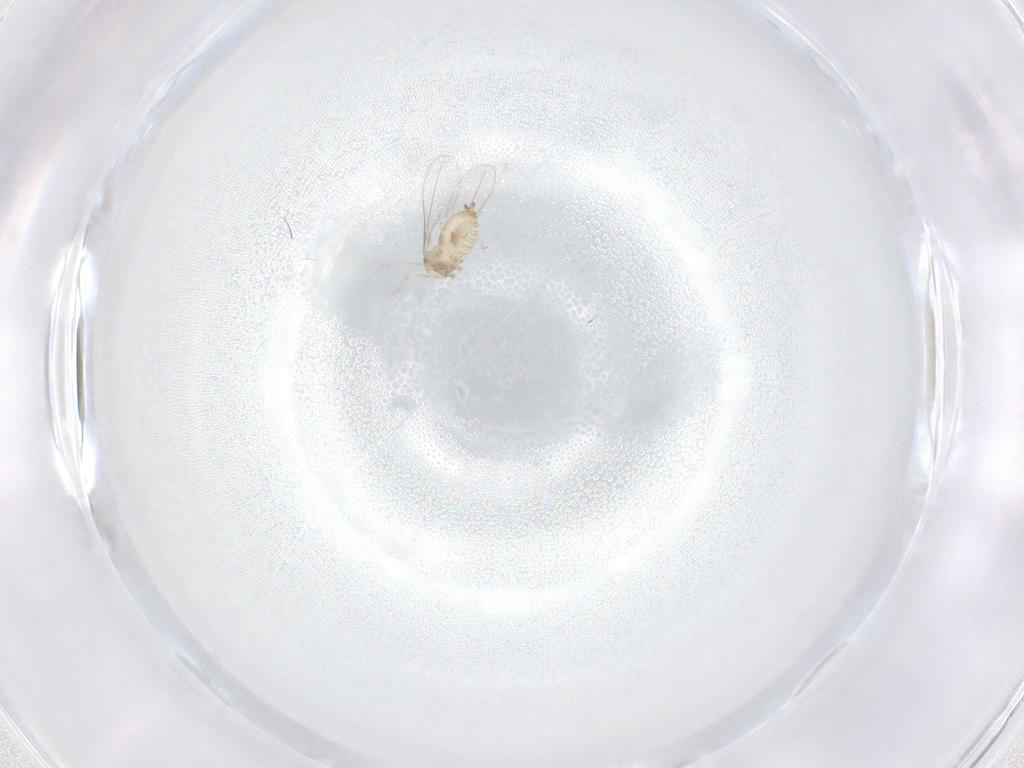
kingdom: Animalia
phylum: Arthropoda
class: Insecta
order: Diptera
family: Cecidomyiidae
